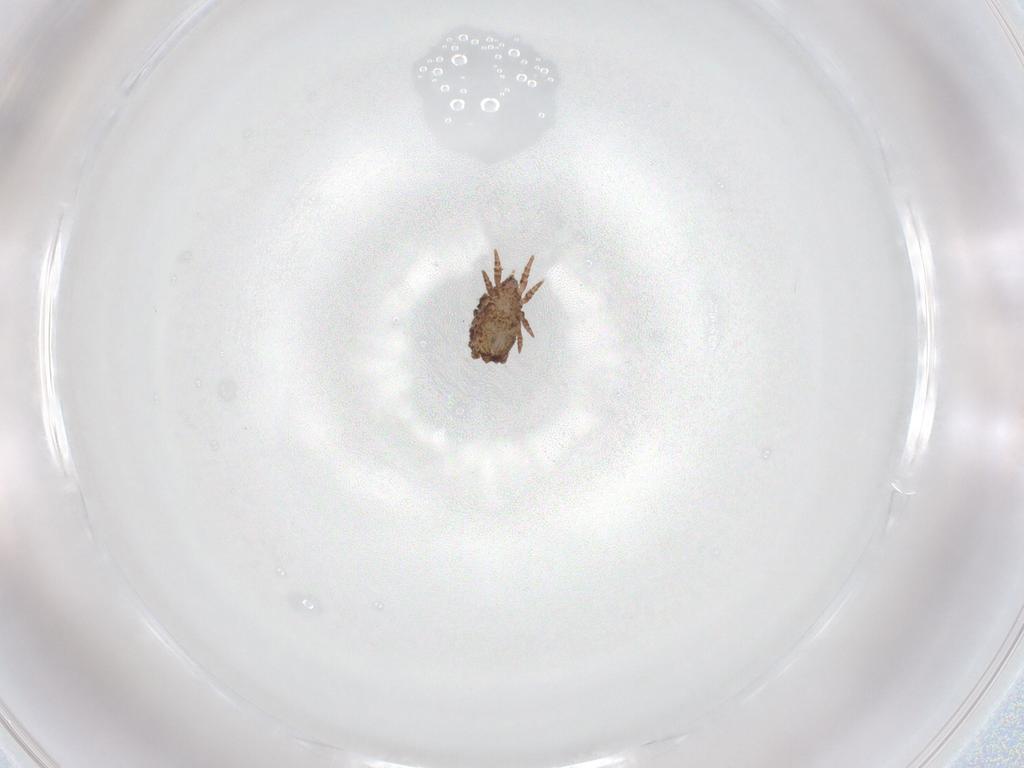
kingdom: Animalia
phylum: Arthropoda
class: Arachnida
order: Sarcoptiformes
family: Crotoniidae
